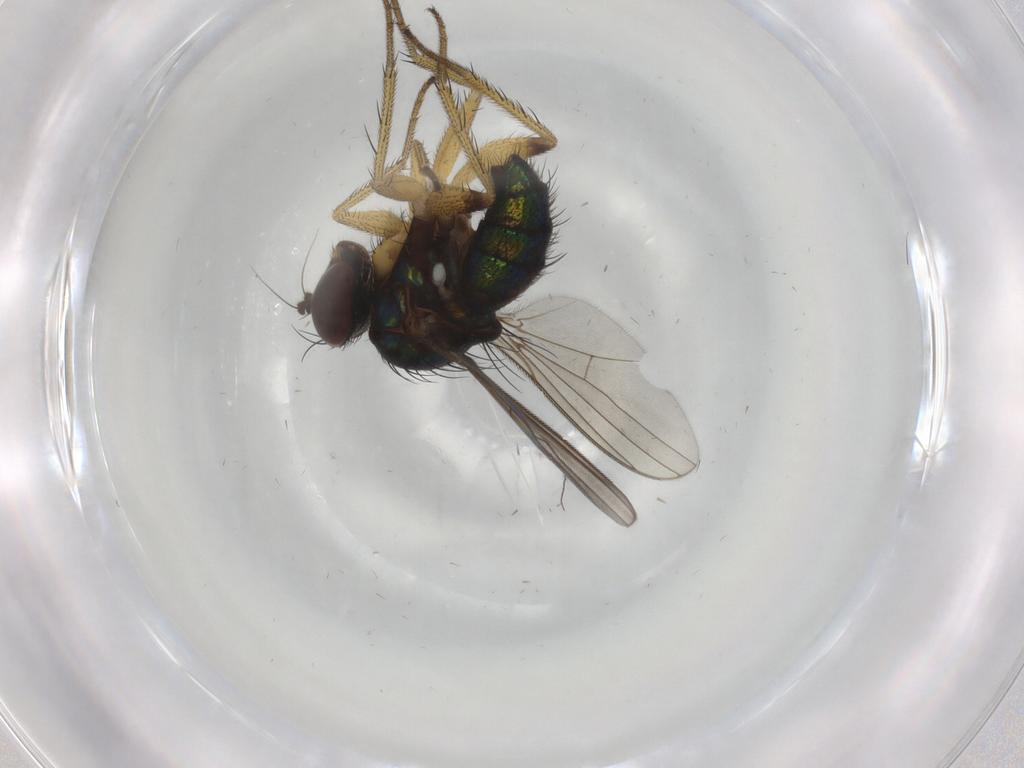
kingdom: Animalia
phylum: Arthropoda
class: Insecta
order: Diptera
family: Dolichopodidae
